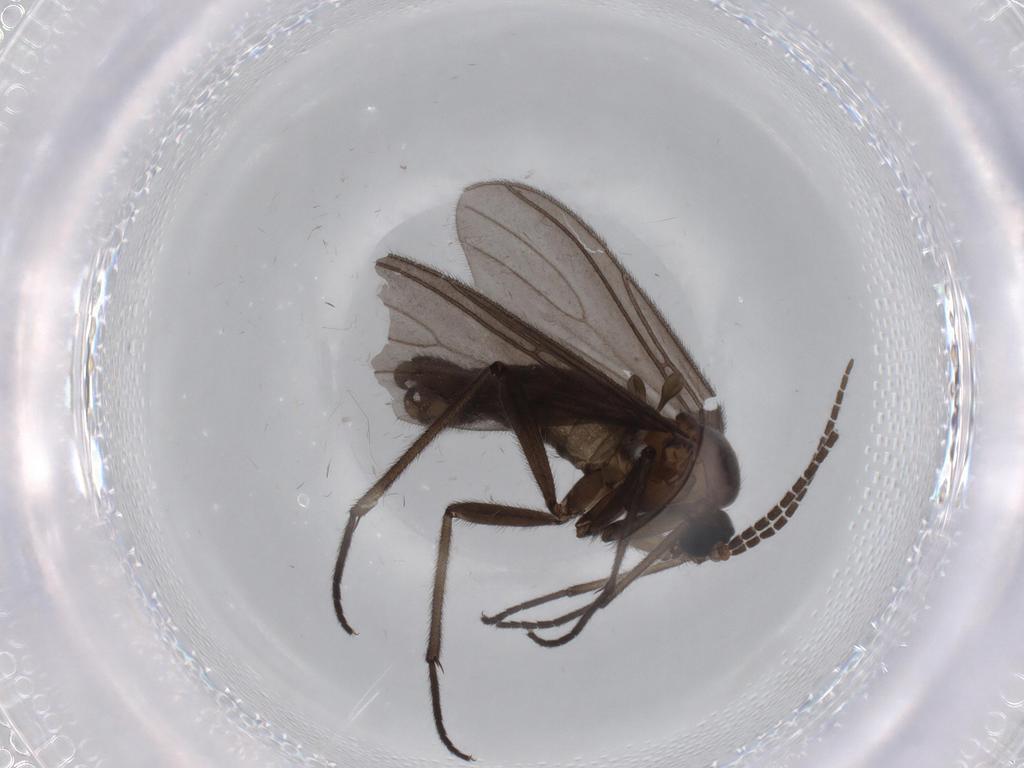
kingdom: Animalia
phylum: Arthropoda
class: Insecta
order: Diptera
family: Sciaridae
